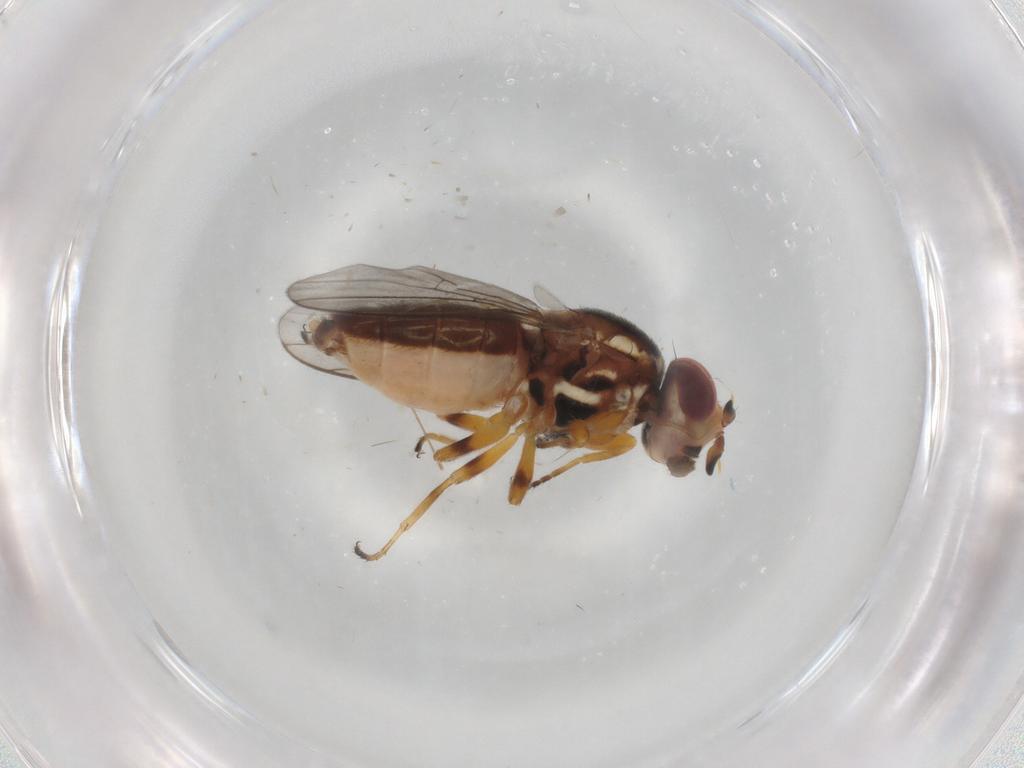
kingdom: Animalia
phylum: Arthropoda
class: Insecta
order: Diptera
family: Chloropidae
